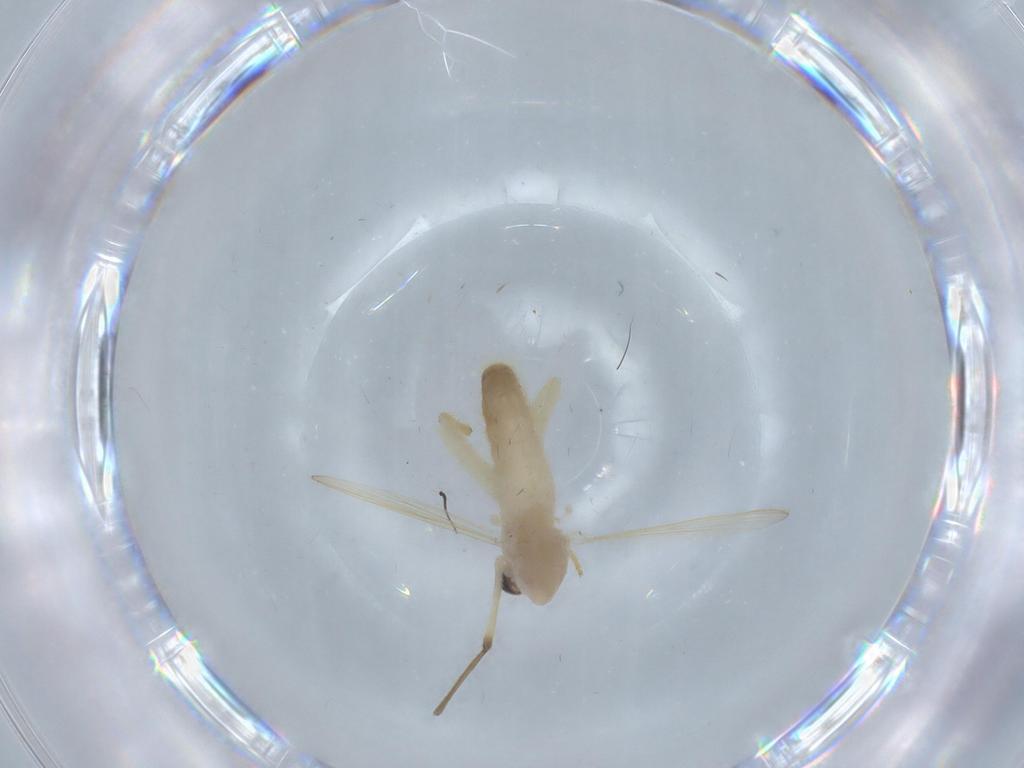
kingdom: Animalia
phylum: Arthropoda
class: Insecta
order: Diptera
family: Chironomidae
